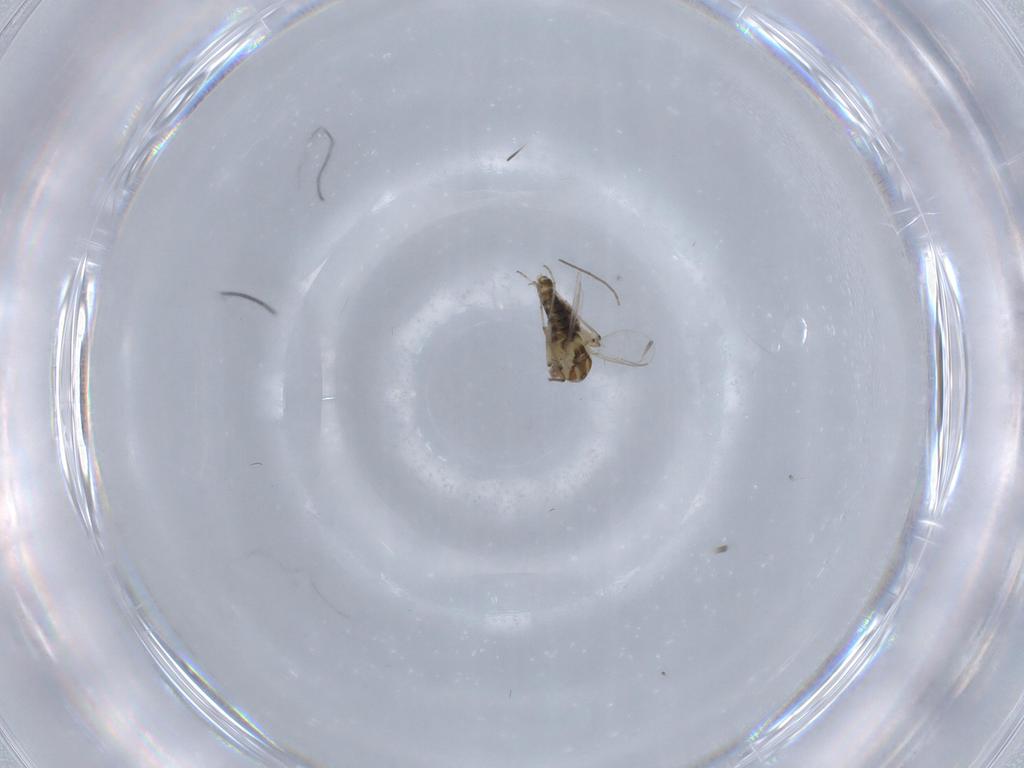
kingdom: Animalia
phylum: Arthropoda
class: Insecta
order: Diptera
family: Chironomidae
